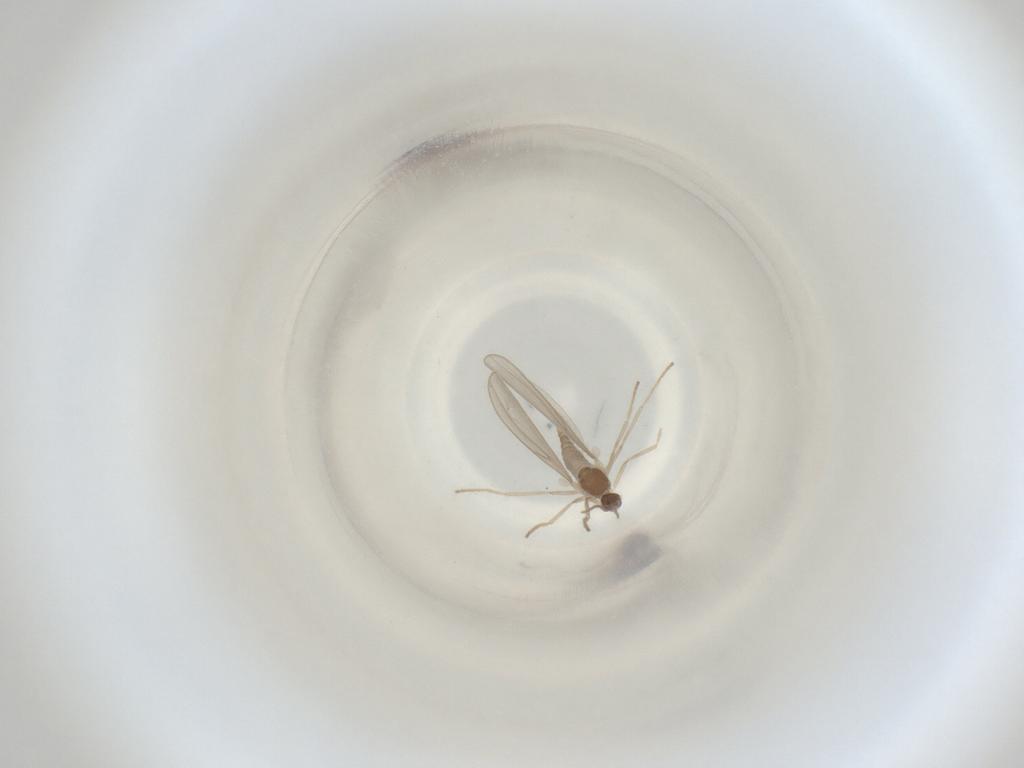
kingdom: Animalia
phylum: Arthropoda
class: Insecta
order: Diptera
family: Cecidomyiidae
